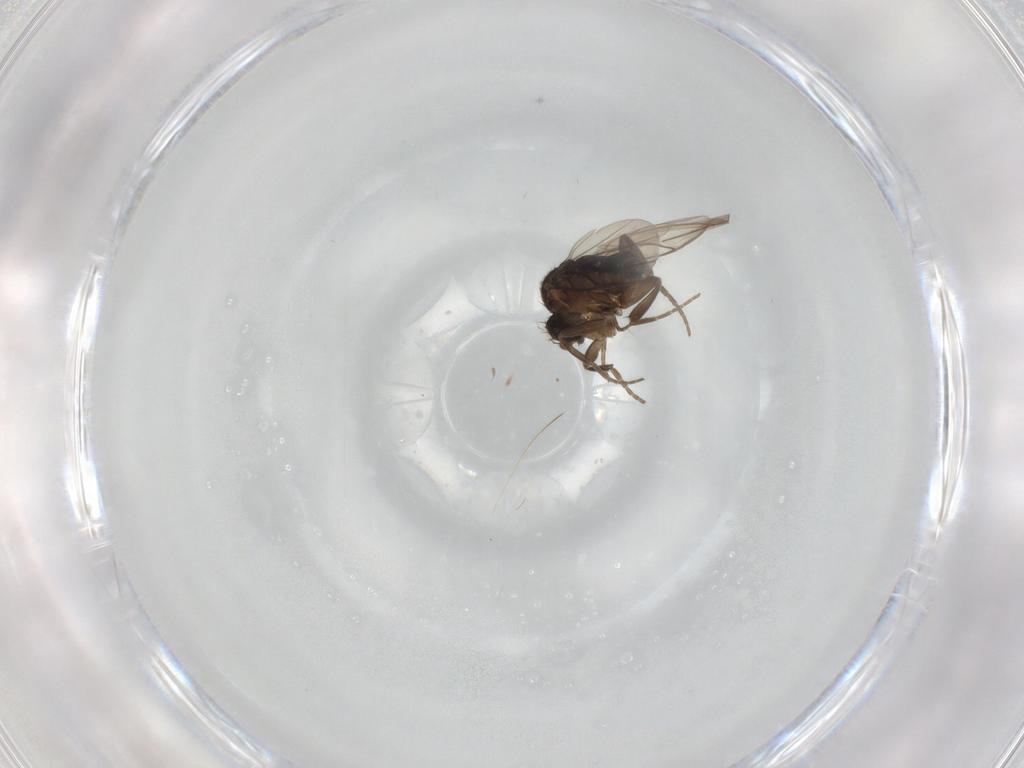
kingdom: Animalia
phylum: Arthropoda
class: Insecta
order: Diptera
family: Phoridae
